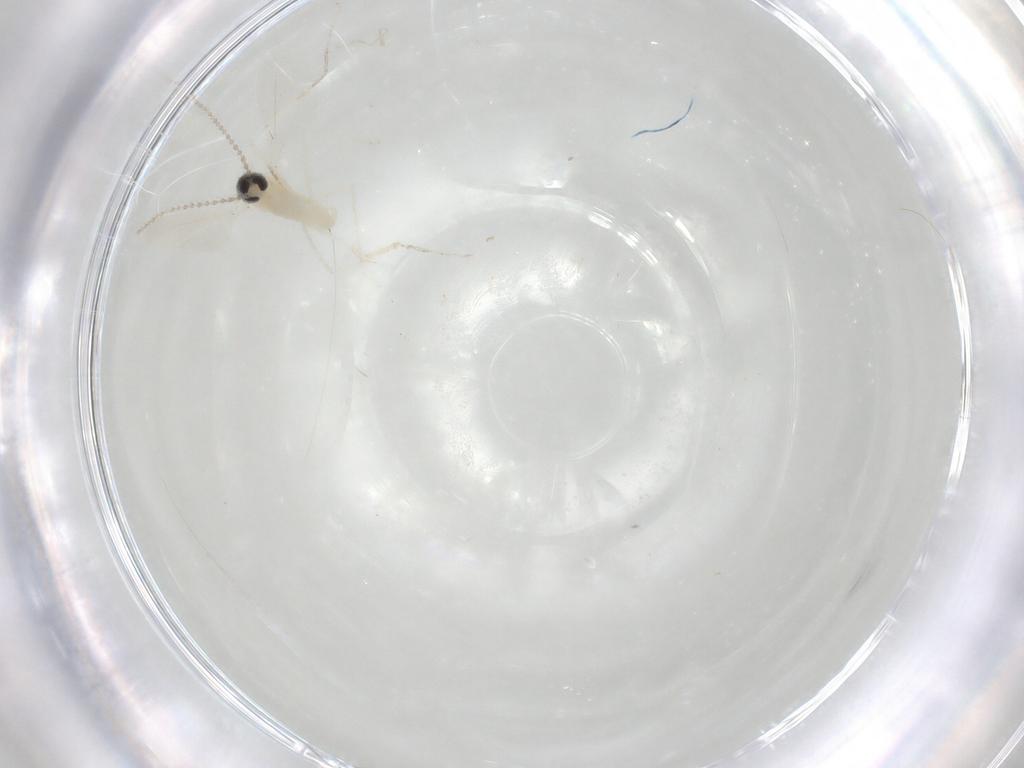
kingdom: Animalia
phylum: Arthropoda
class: Insecta
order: Diptera
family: Cecidomyiidae
